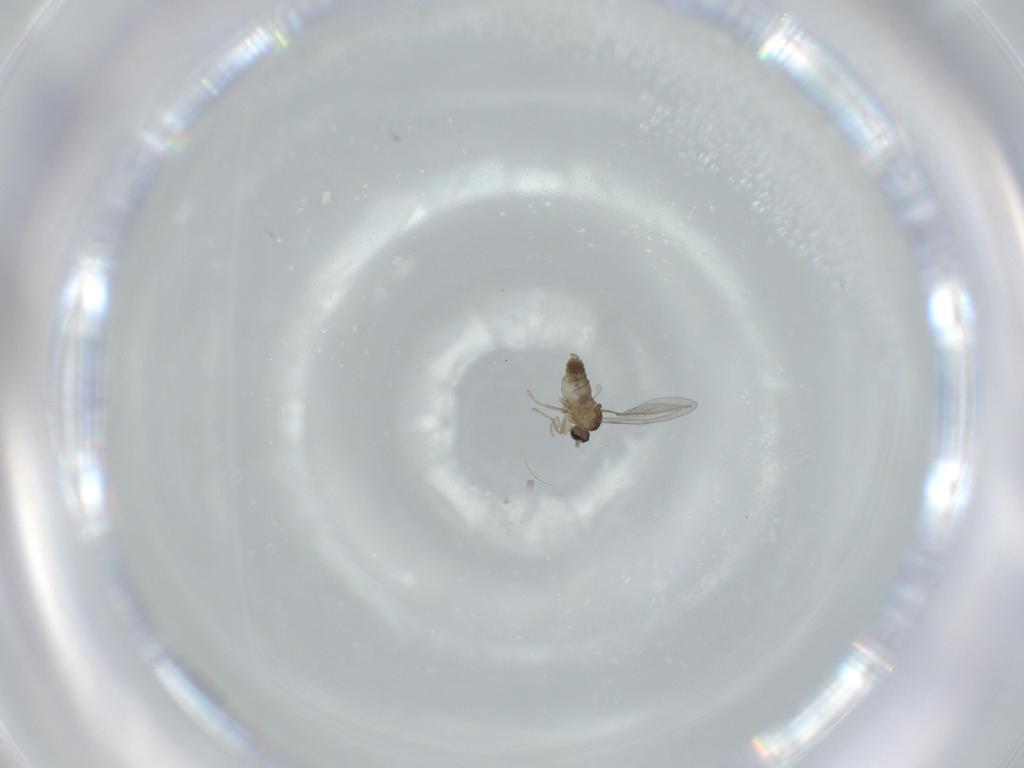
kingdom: Animalia
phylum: Arthropoda
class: Insecta
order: Diptera
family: Cecidomyiidae
